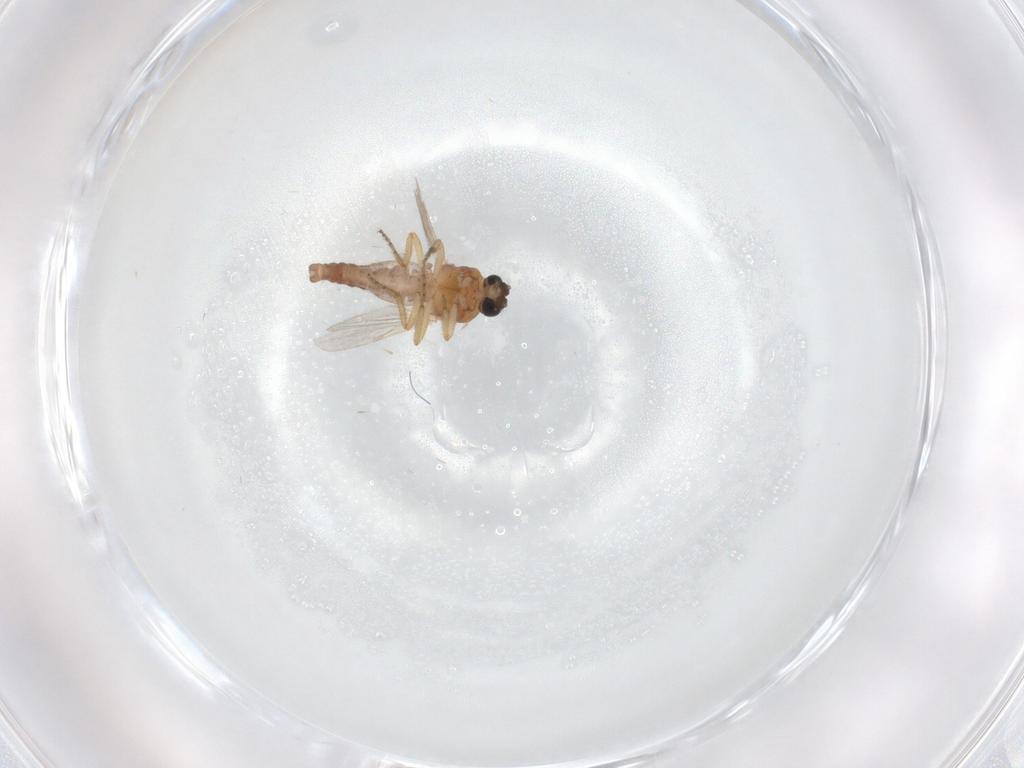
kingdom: Animalia
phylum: Arthropoda
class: Insecta
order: Diptera
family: Ceratopogonidae
